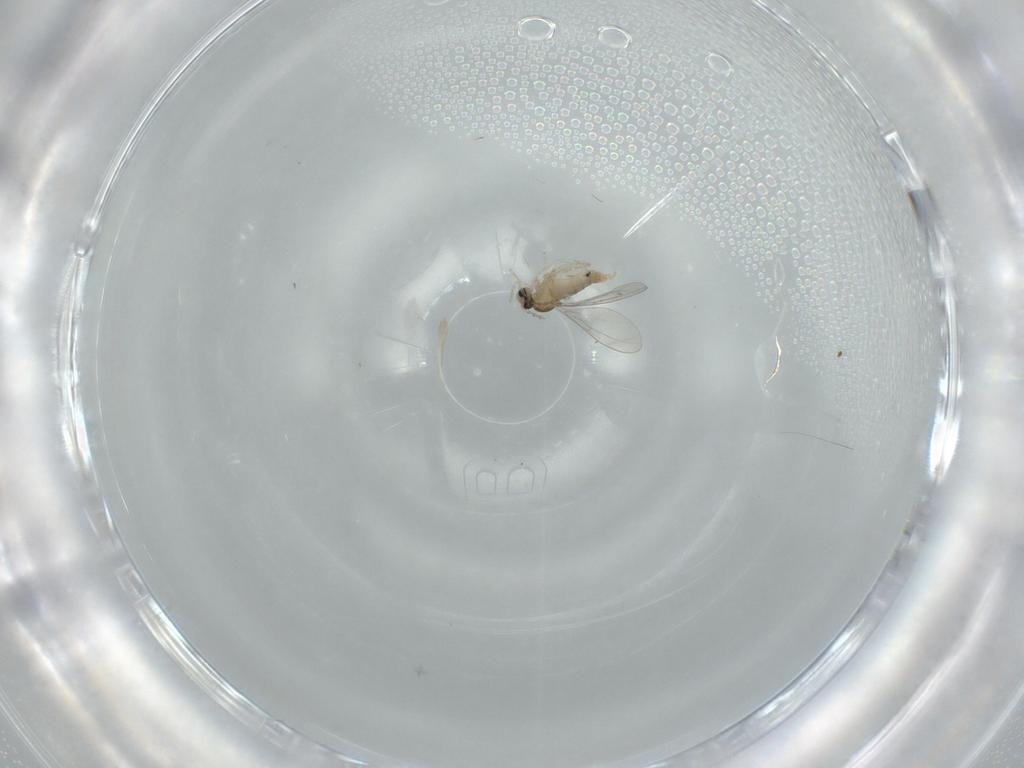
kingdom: Animalia
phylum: Arthropoda
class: Insecta
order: Diptera
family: Cecidomyiidae
